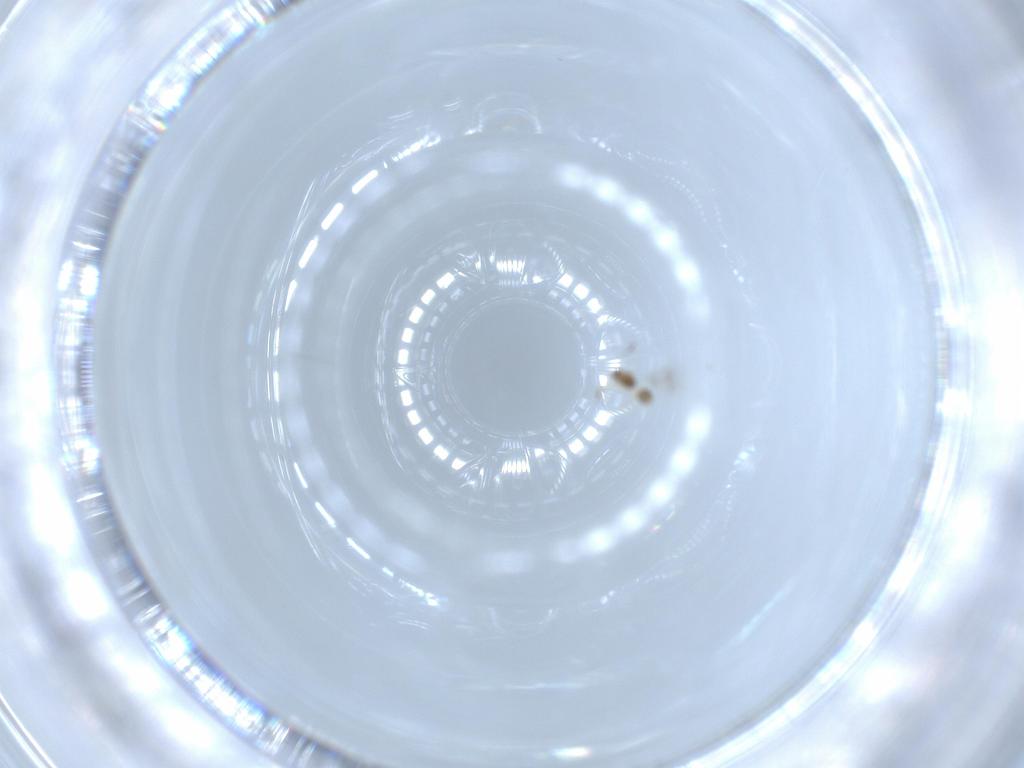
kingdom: Animalia
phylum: Arthropoda
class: Insecta
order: Hymenoptera
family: Mymarommatidae
